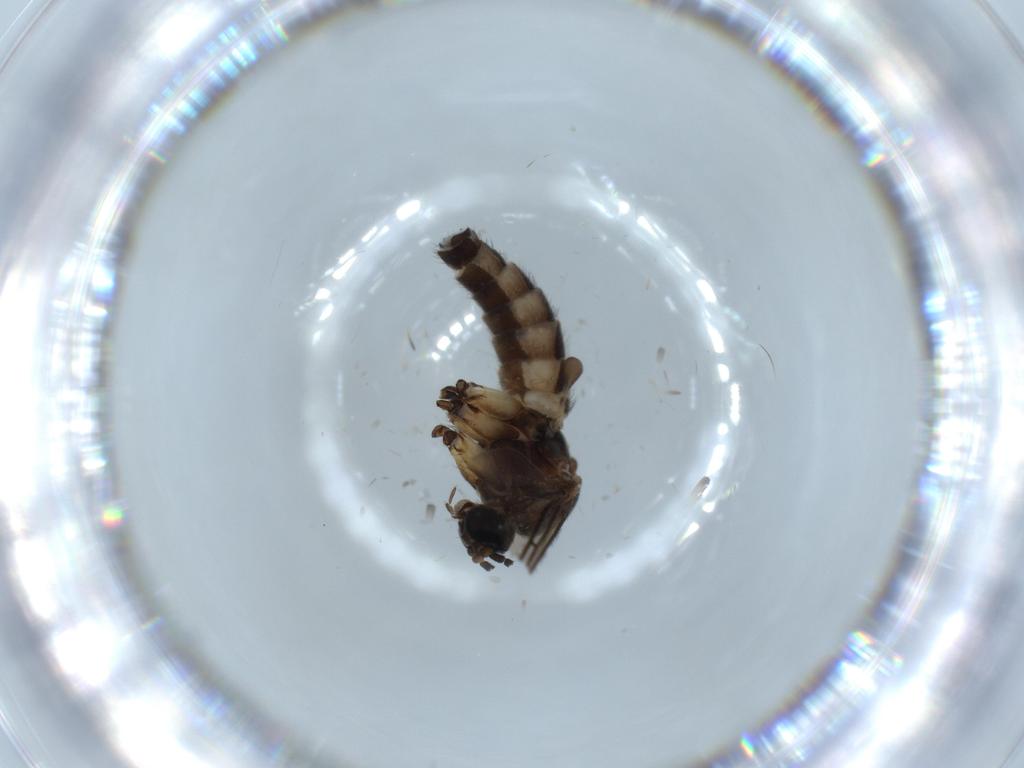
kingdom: Animalia
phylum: Arthropoda
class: Insecta
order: Diptera
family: Sciaridae
